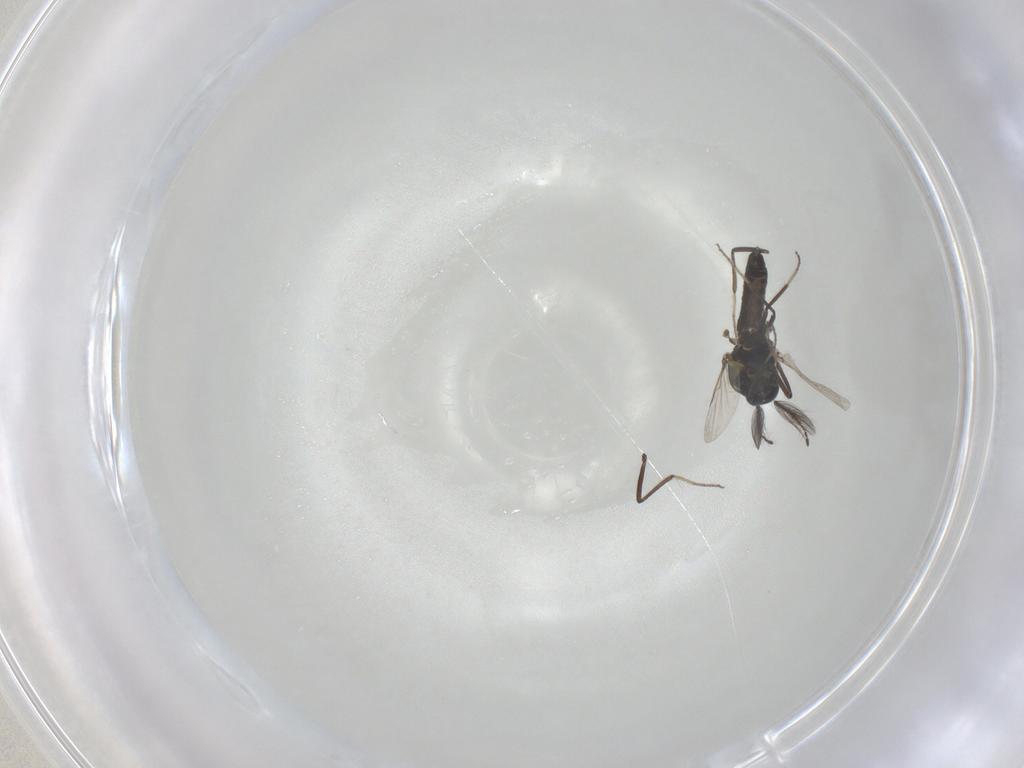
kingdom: Animalia
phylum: Arthropoda
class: Insecta
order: Diptera
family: Ceratopogonidae
